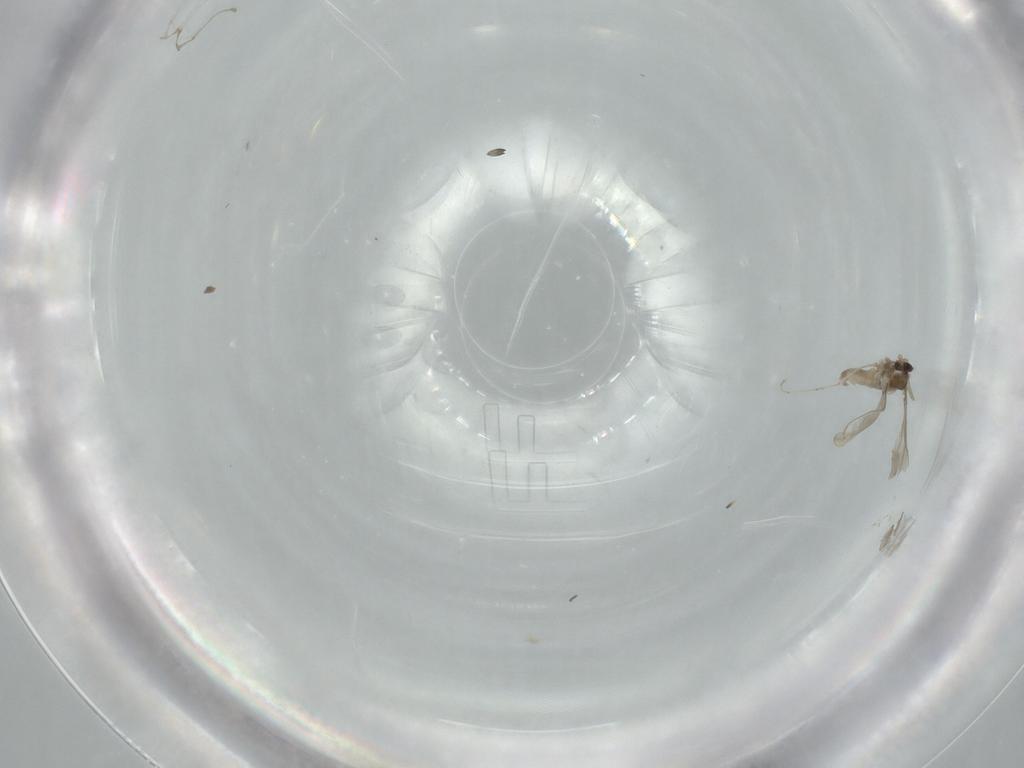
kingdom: Animalia
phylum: Arthropoda
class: Insecta
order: Diptera
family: Cecidomyiidae
